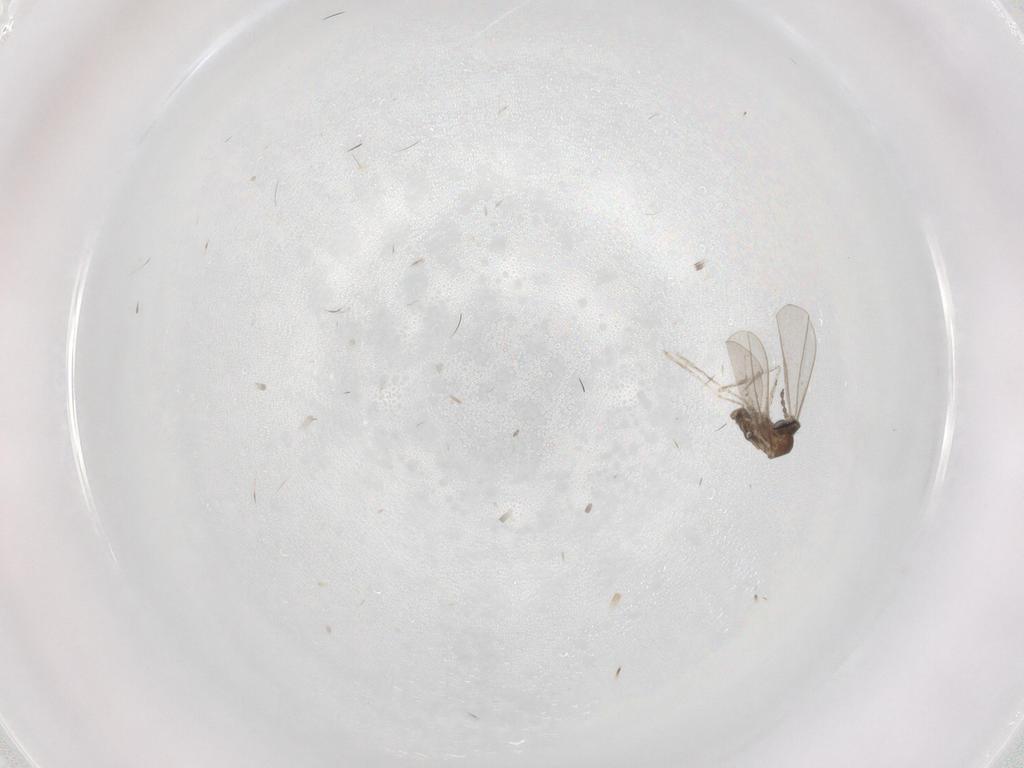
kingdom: Animalia
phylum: Arthropoda
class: Insecta
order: Diptera
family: Cecidomyiidae
